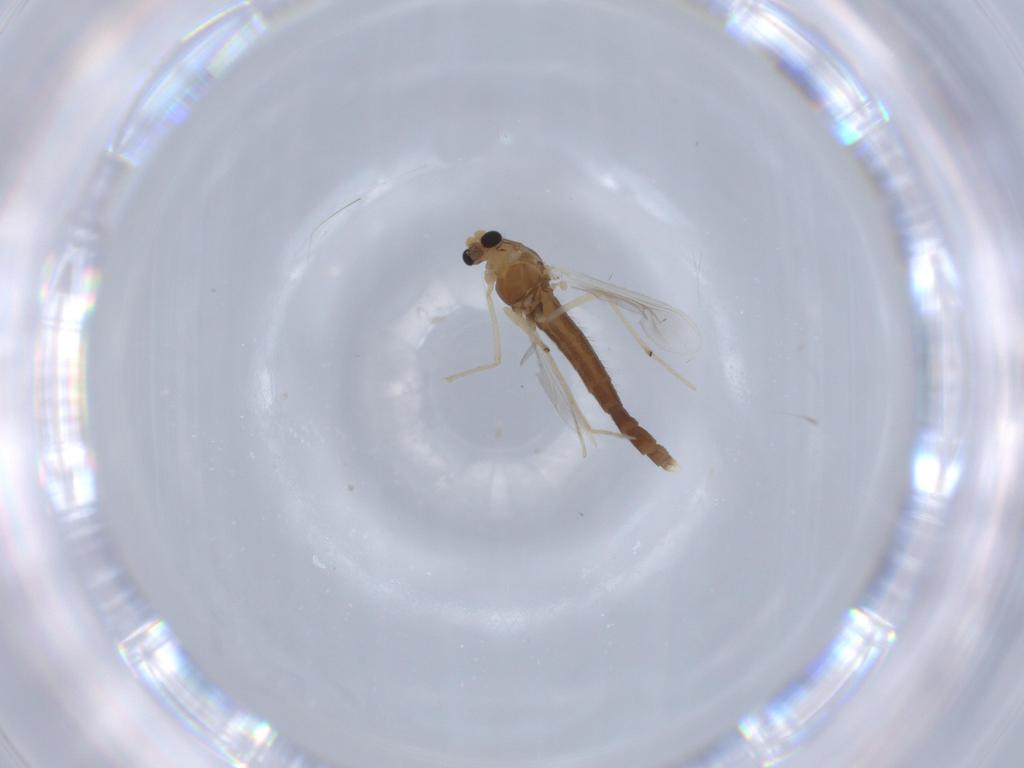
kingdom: Animalia
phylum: Arthropoda
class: Insecta
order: Diptera
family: Chironomidae
